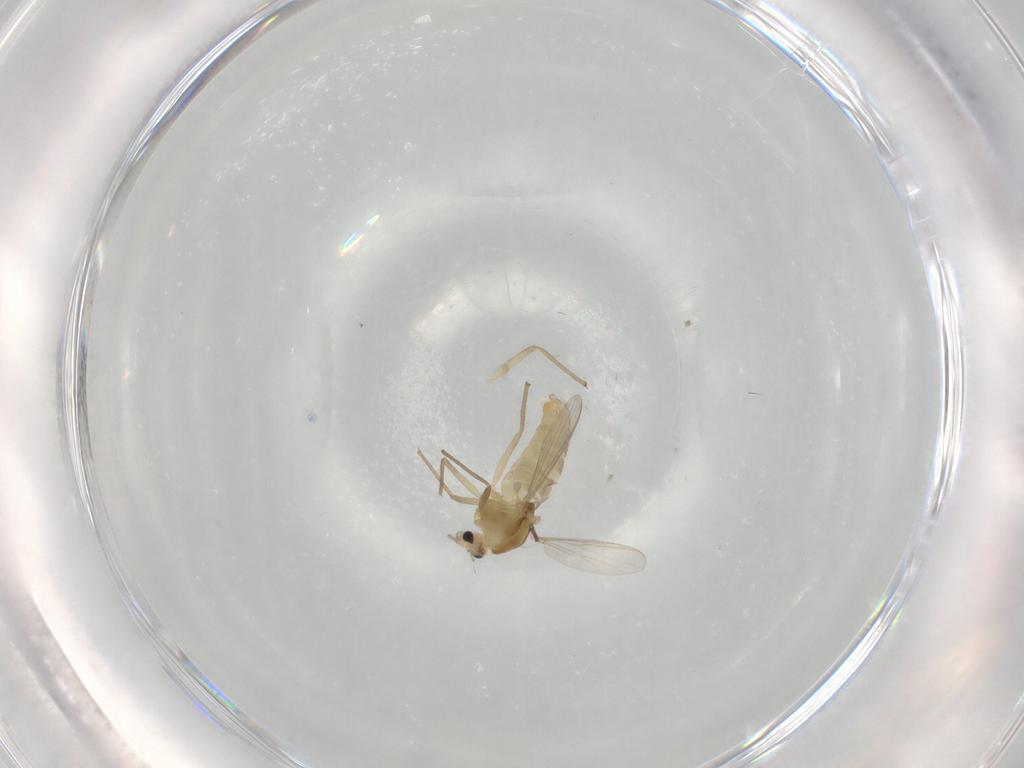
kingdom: Animalia
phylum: Arthropoda
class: Insecta
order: Diptera
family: Chironomidae
